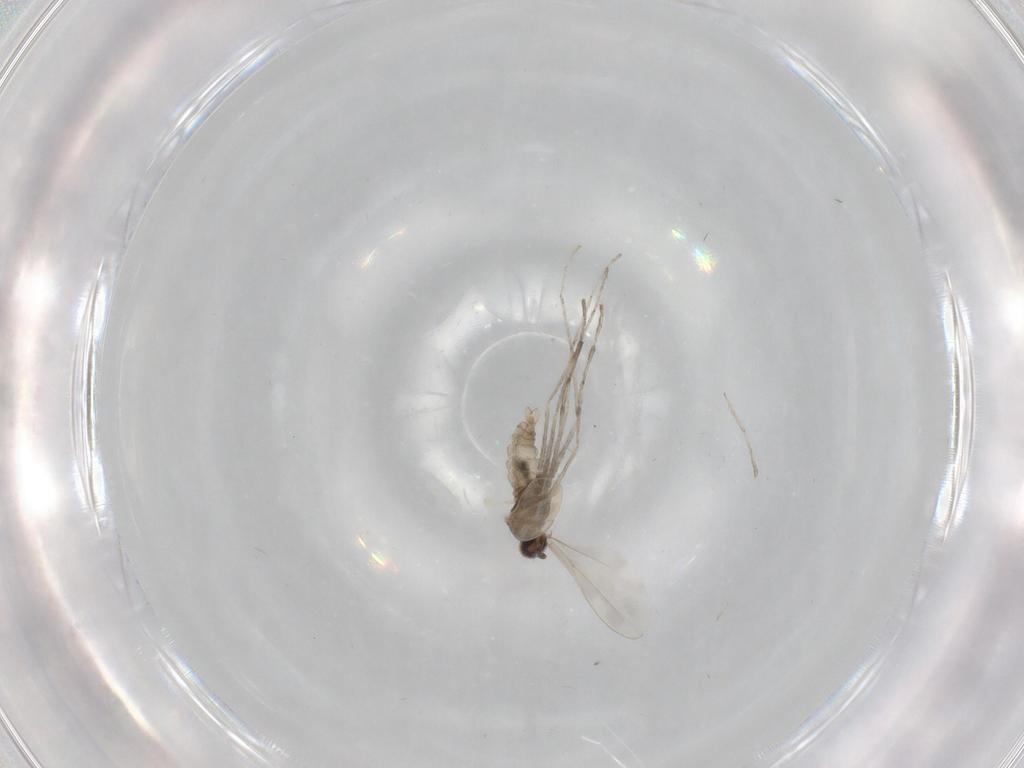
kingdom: Animalia
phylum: Arthropoda
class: Insecta
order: Diptera
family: Cecidomyiidae
